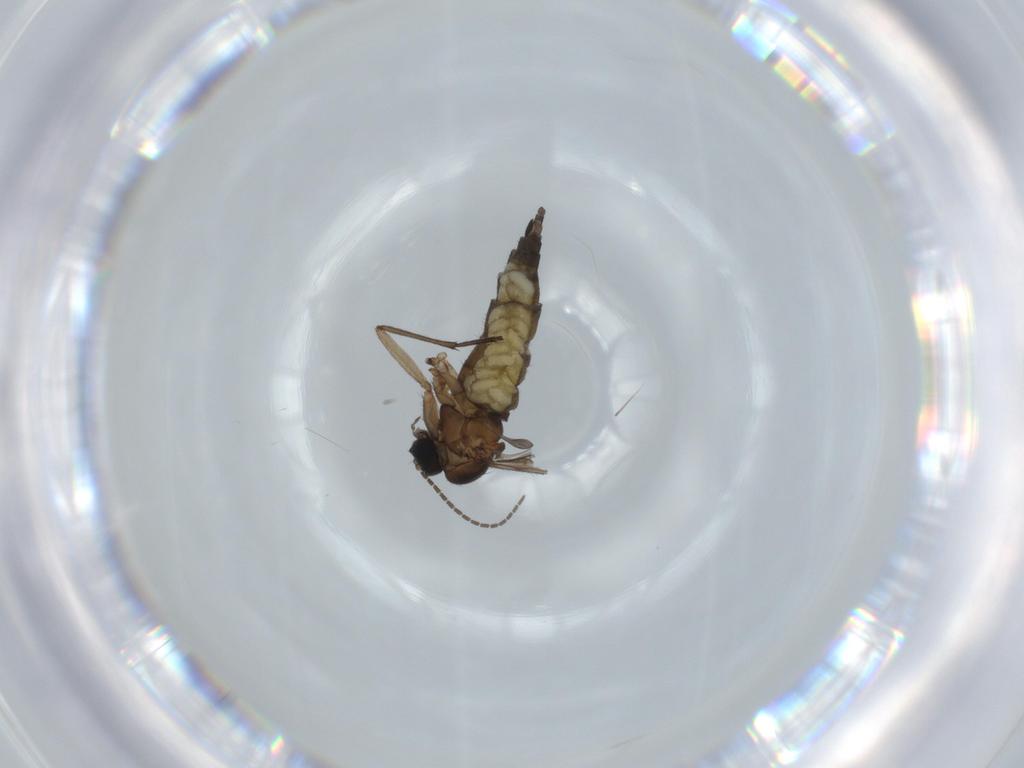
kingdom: Animalia
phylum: Arthropoda
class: Insecta
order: Diptera
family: Sciaridae
